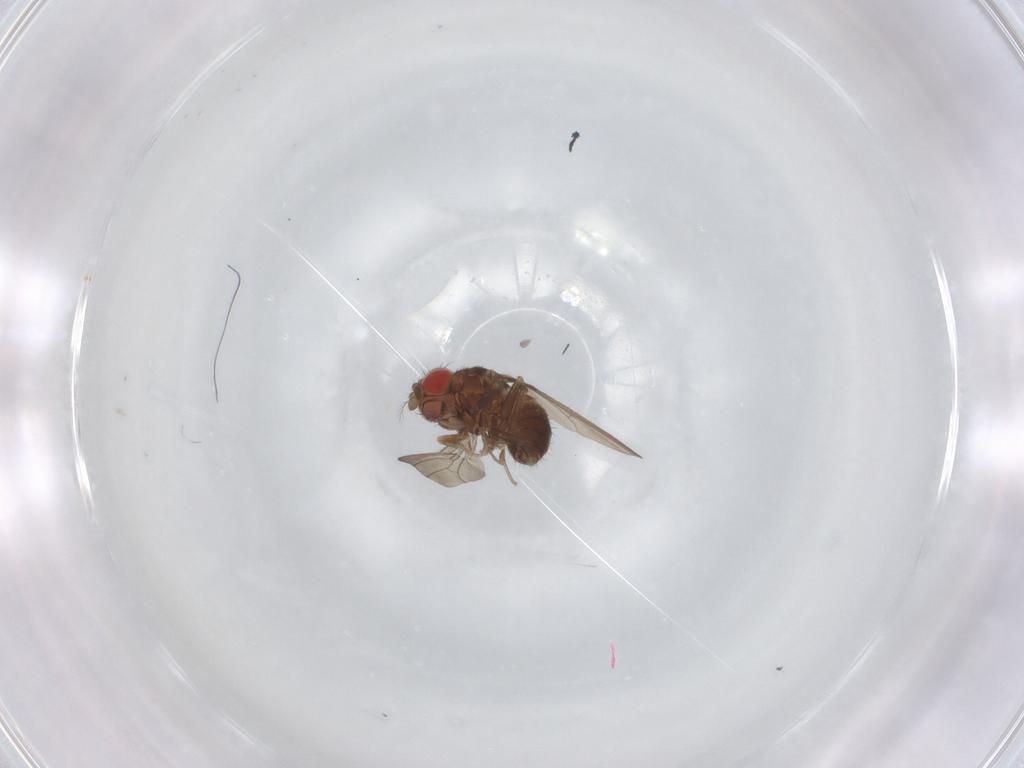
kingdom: Animalia
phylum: Arthropoda
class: Insecta
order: Diptera
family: Drosophilidae
